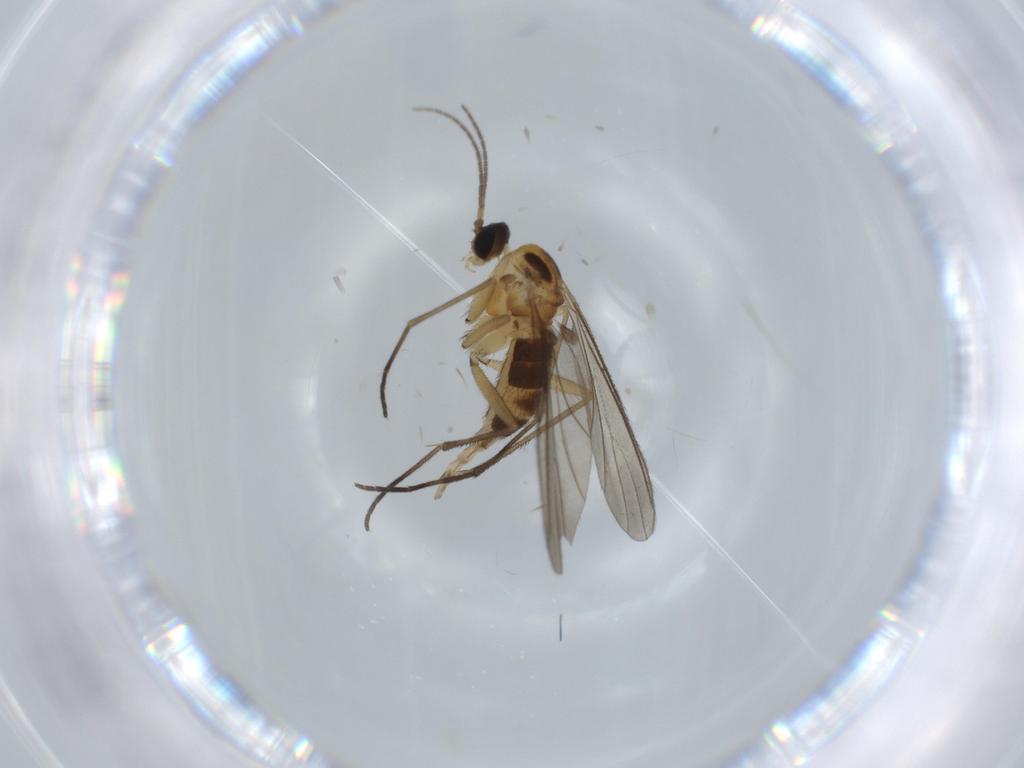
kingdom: Animalia
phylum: Arthropoda
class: Insecta
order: Diptera
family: Sciaridae
